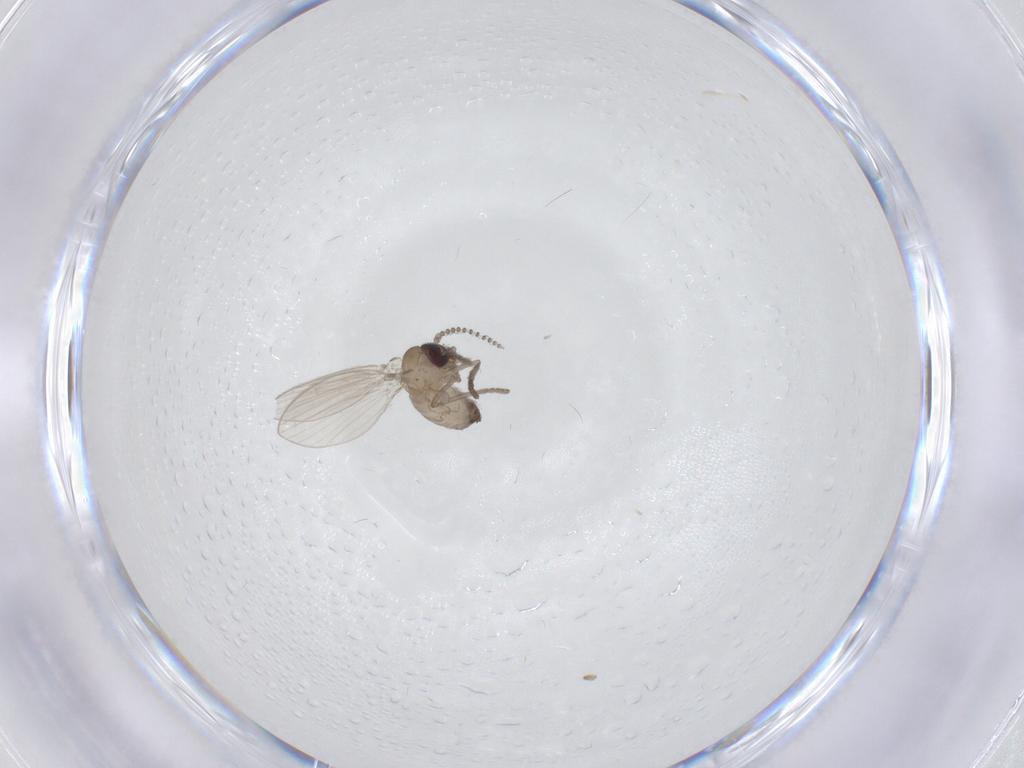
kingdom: Animalia
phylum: Arthropoda
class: Insecta
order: Diptera
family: Psychodidae
